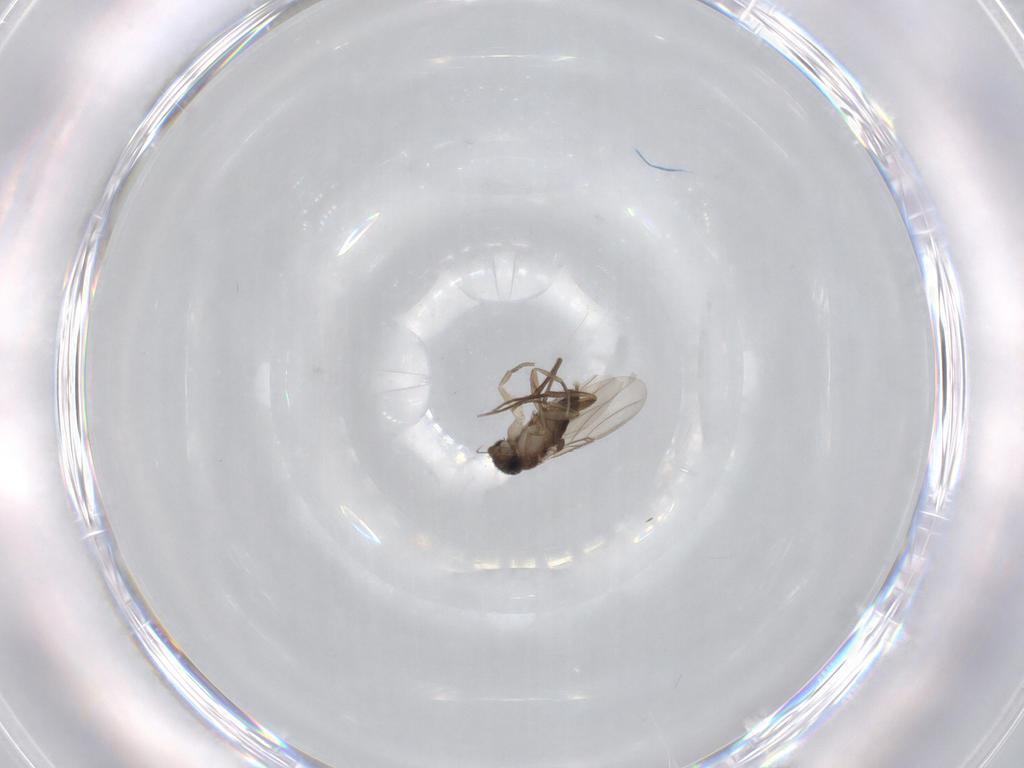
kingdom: Animalia
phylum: Arthropoda
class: Insecta
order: Diptera
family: Phoridae
